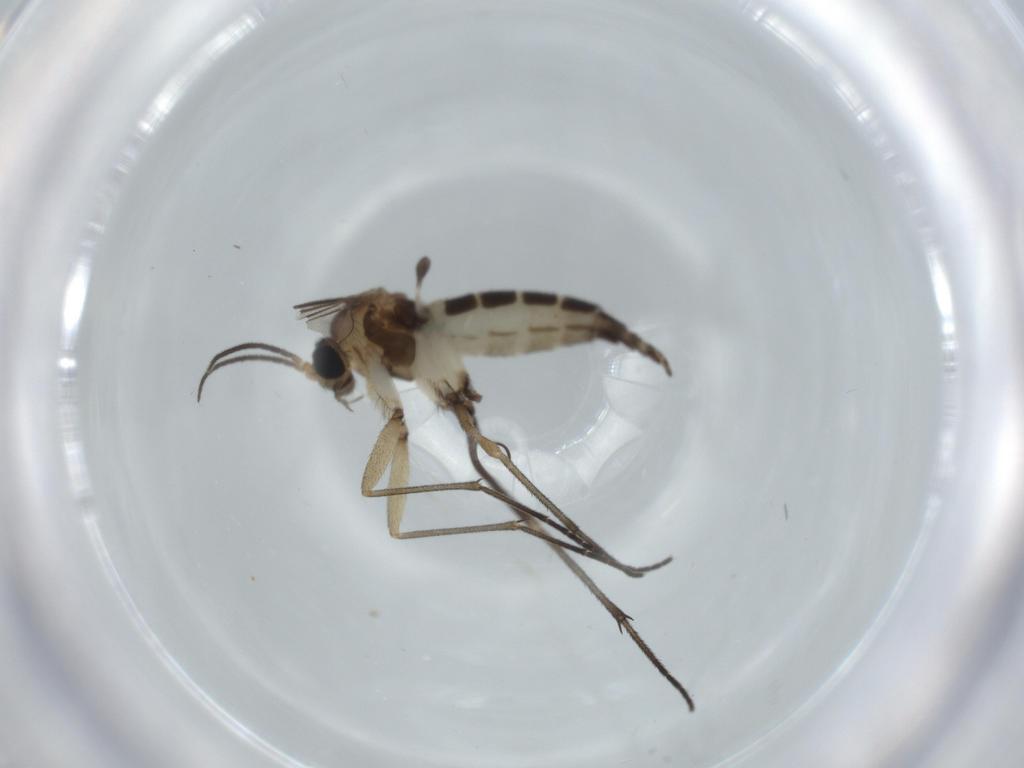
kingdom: Animalia
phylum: Arthropoda
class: Insecta
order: Diptera
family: Sciaridae
